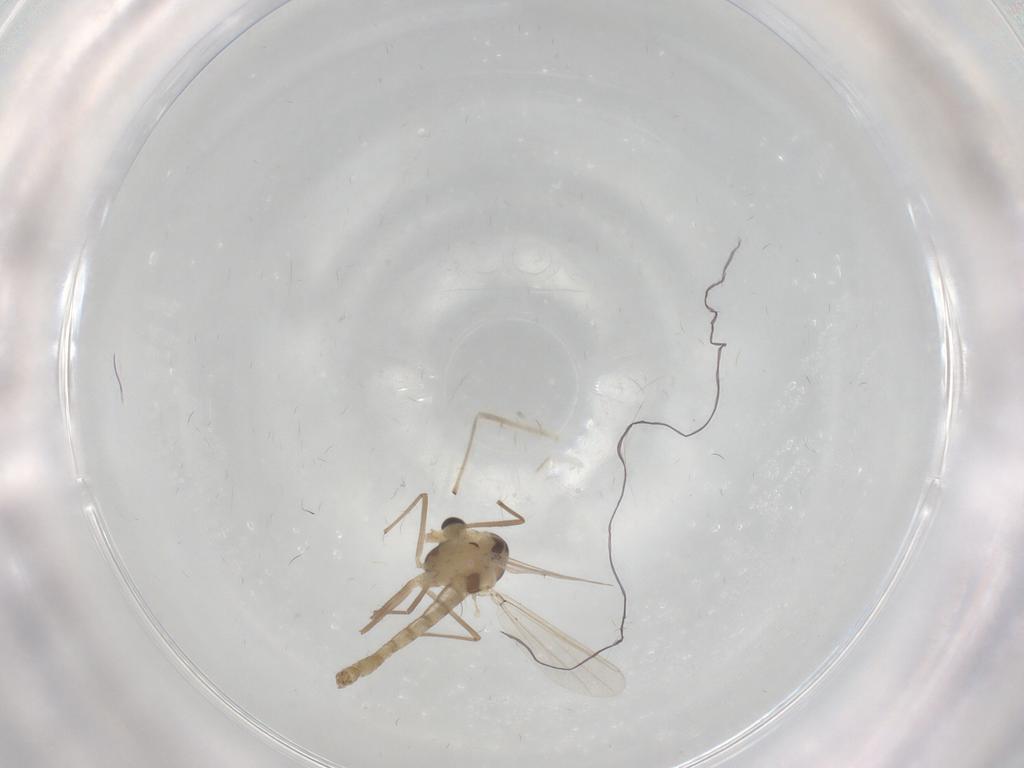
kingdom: Animalia
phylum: Arthropoda
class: Insecta
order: Diptera
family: Chironomidae
